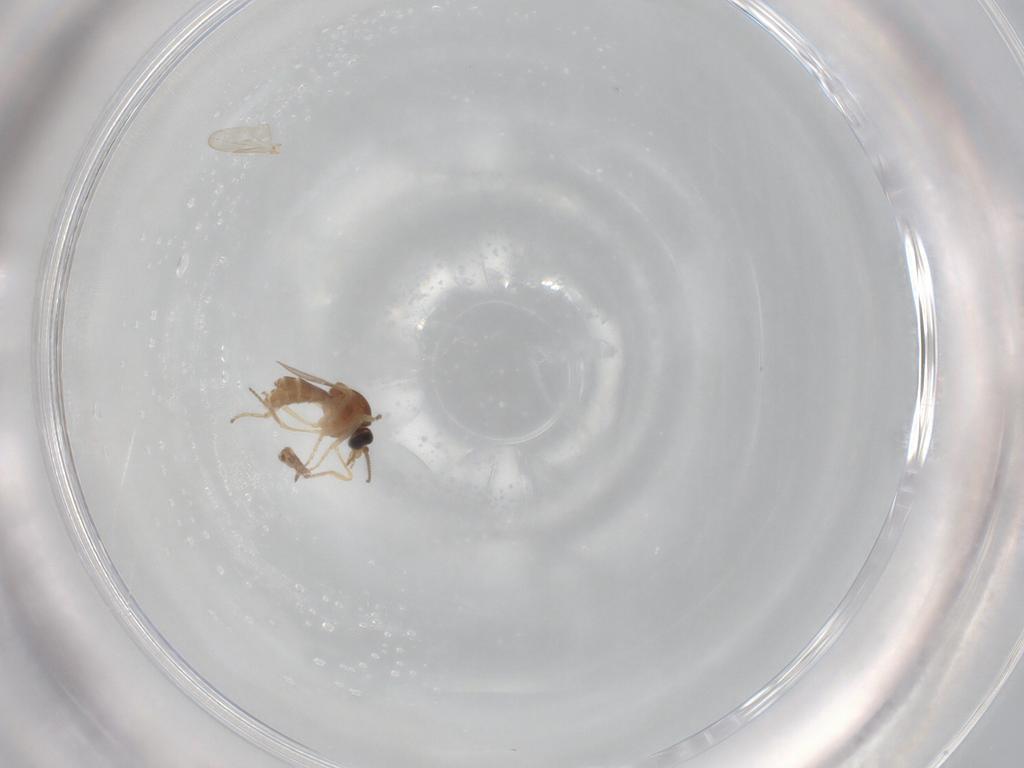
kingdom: Animalia
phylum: Arthropoda
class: Insecta
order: Diptera
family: Ceratopogonidae
